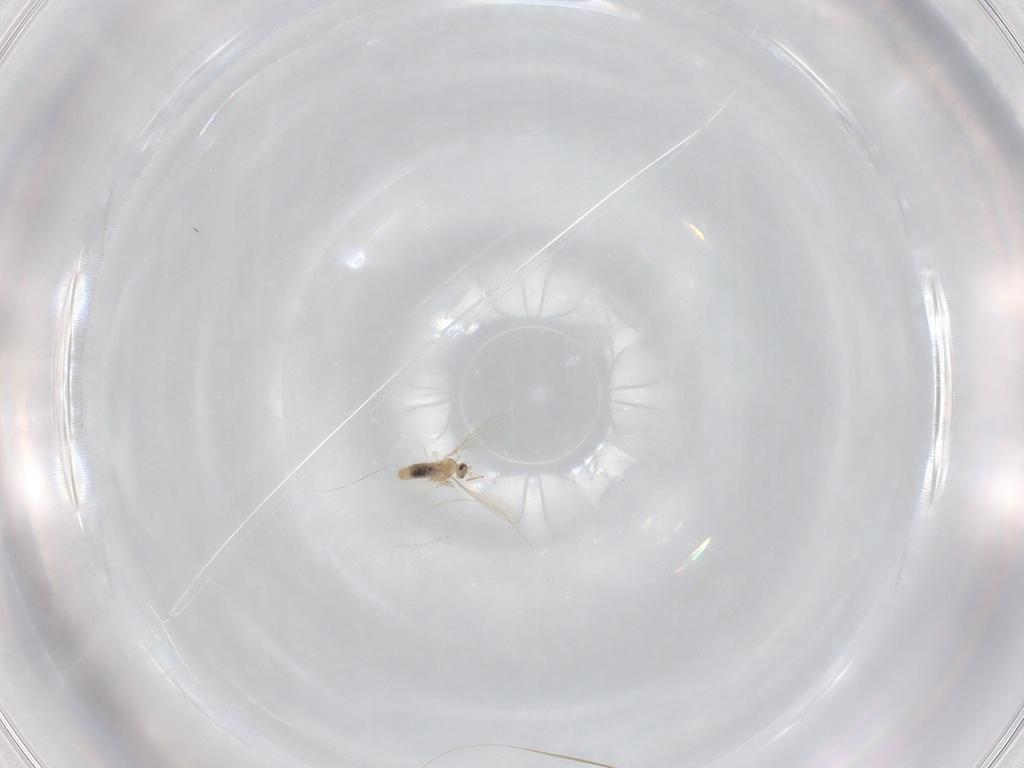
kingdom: Animalia
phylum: Arthropoda
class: Insecta
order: Diptera
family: Cecidomyiidae
